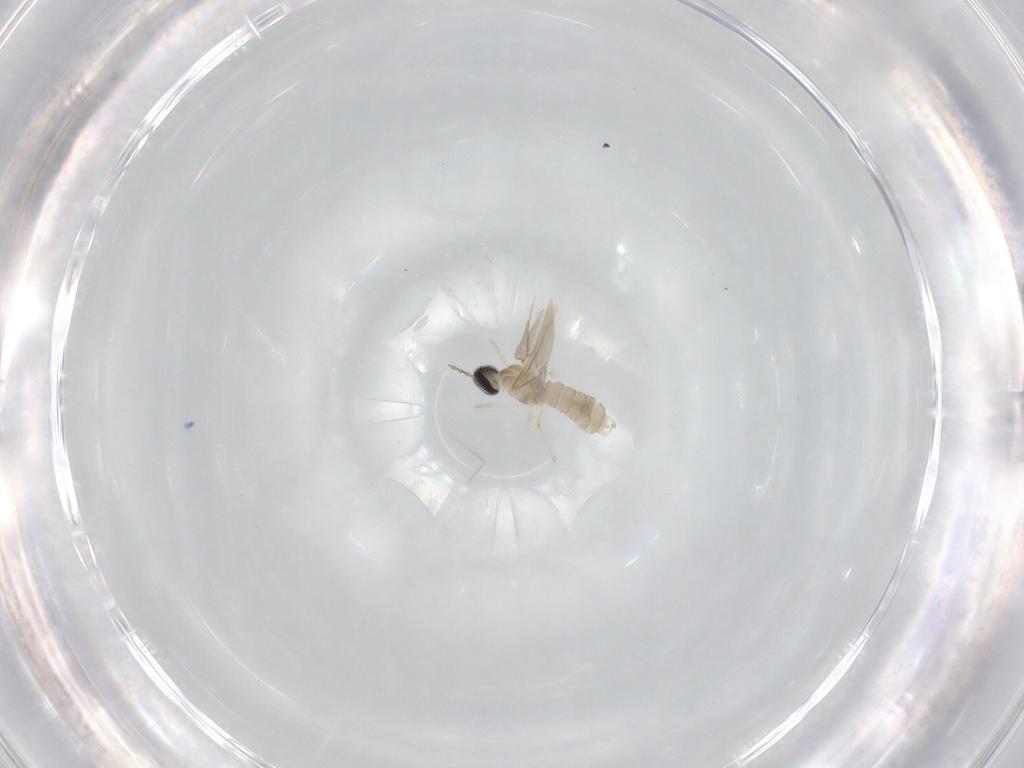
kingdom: Animalia
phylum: Arthropoda
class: Insecta
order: Diptera
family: Cecidomyiidae
